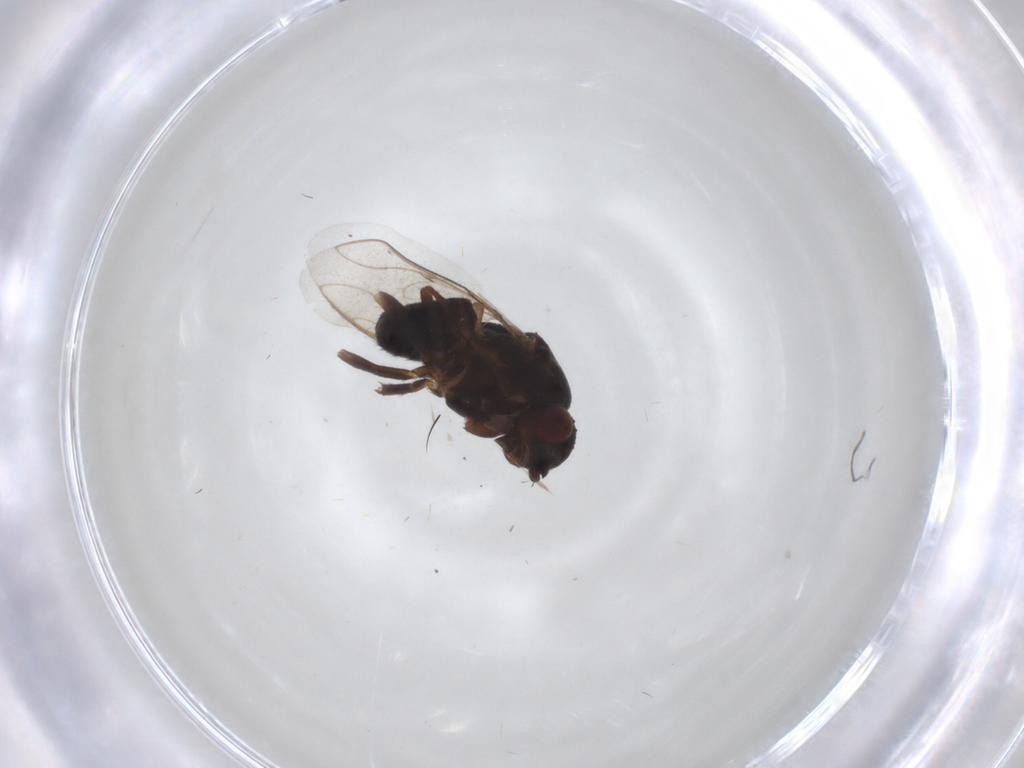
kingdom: Animalia
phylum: Arthropoda
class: Insecta
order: Diptera
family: Sphaeroceridae
